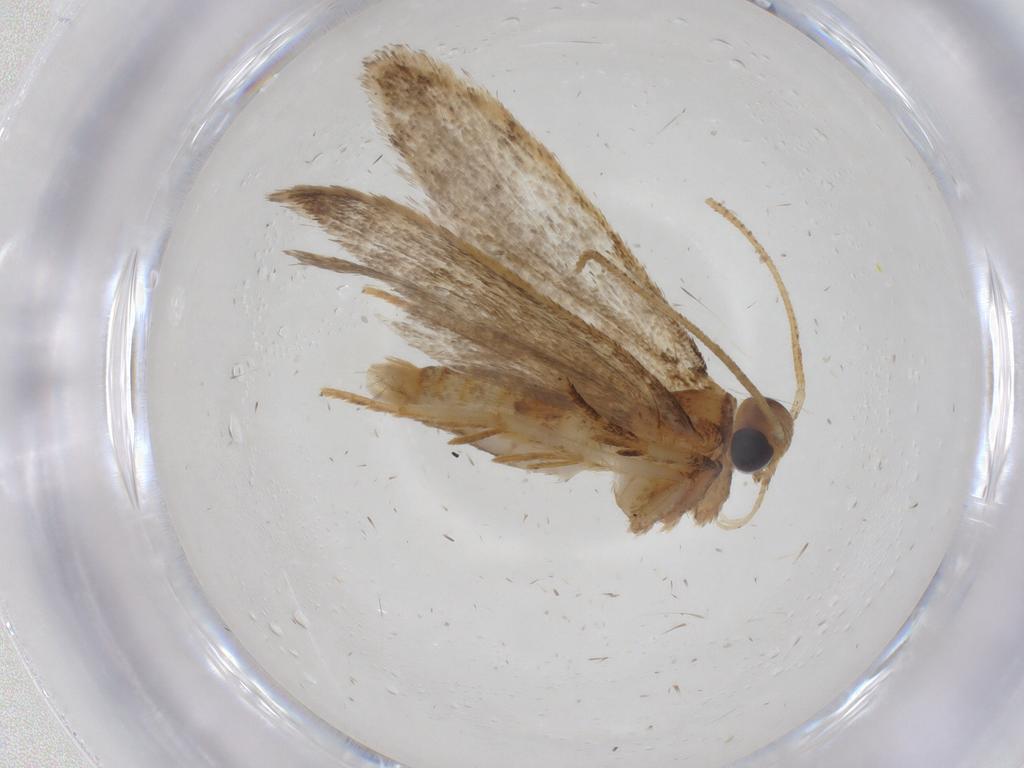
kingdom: Animalia
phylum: Arthropoda
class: Insecta
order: Lepidoptera
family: Oecophoridae
